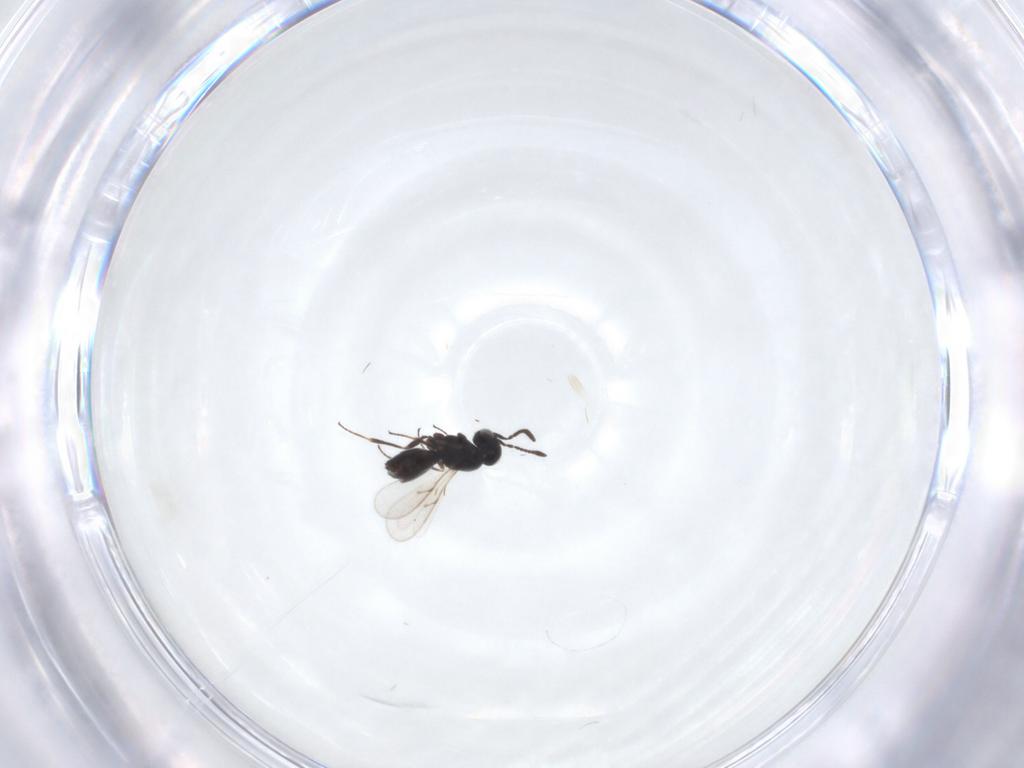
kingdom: Animalia
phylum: Arthropoda
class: Insecta
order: Hymenoptera
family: Scelionidae
